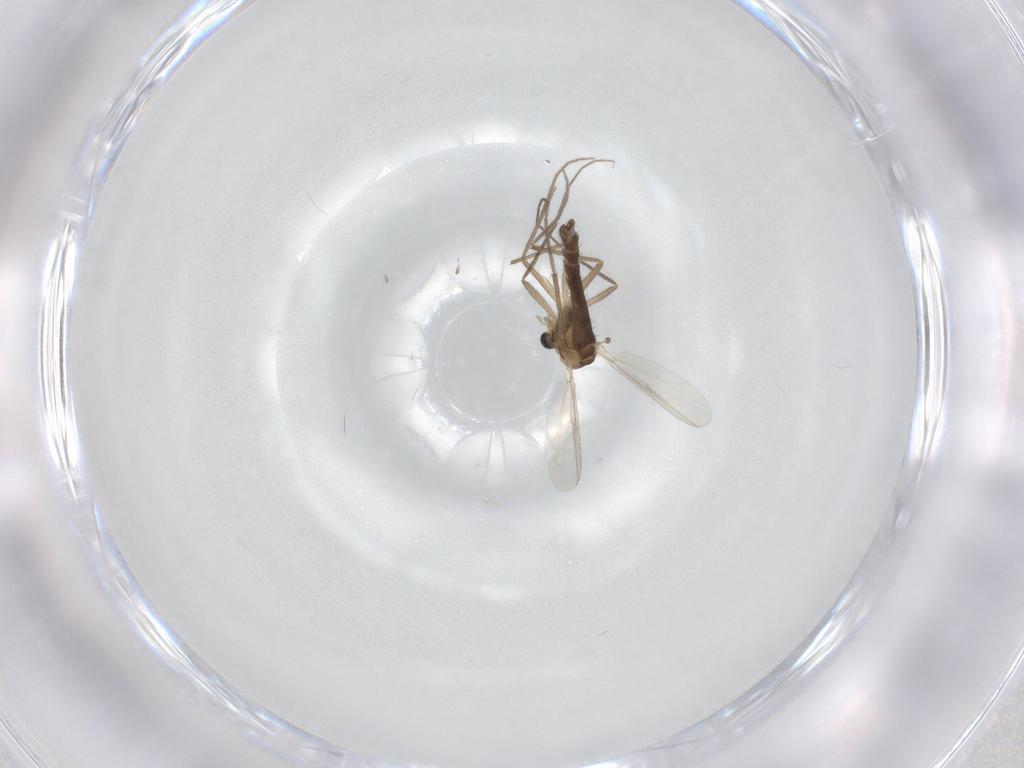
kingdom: Animalia
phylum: Arthropoda
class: Insecta
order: Diptera
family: Chironomidae
